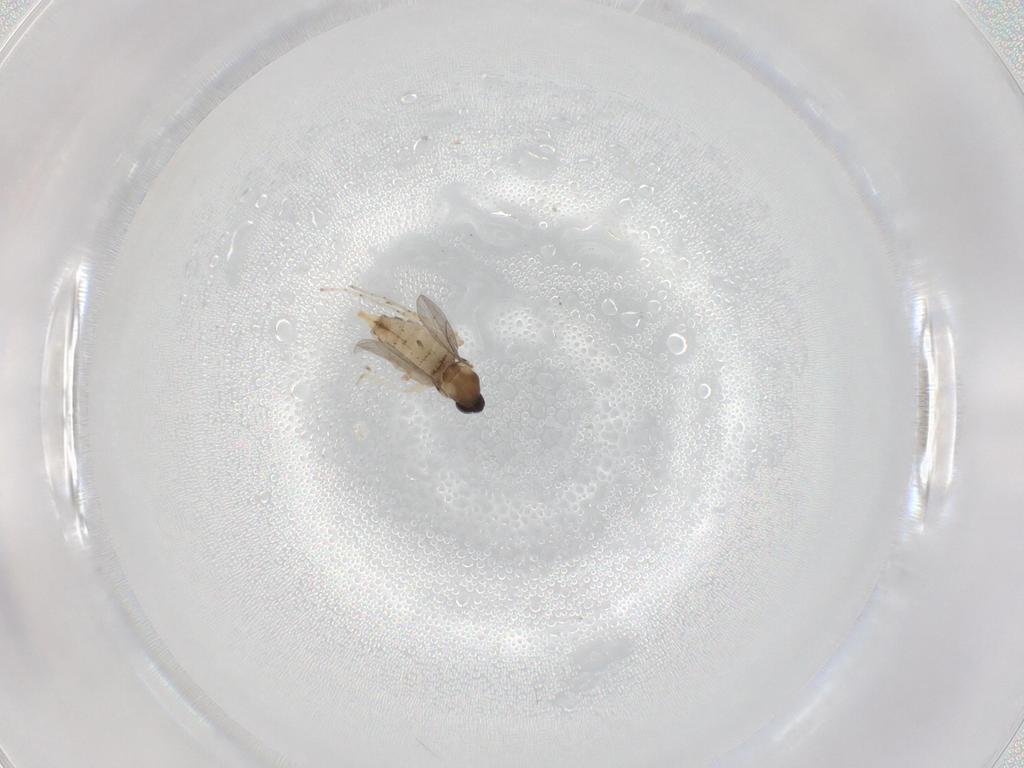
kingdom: Animalia
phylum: Arthropoda
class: Insecta
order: Diptera
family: Cecidomyiidae
